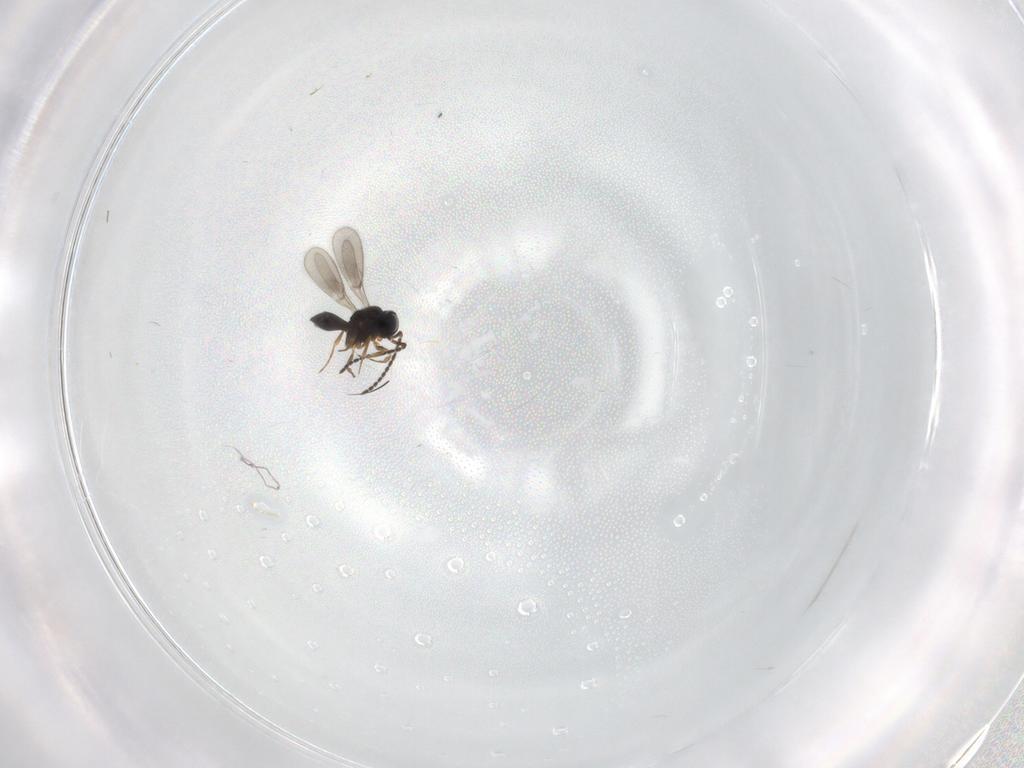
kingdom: Animalia
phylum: Arthropoda
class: Insecta
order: Hymenoptera
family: Scelionidae
